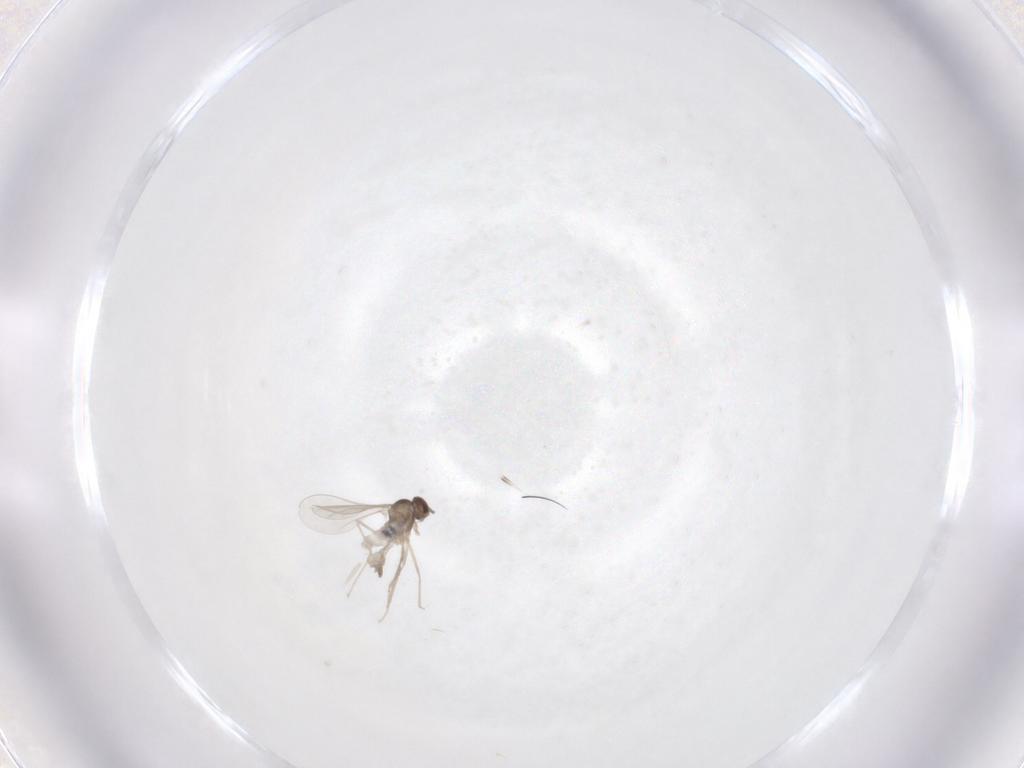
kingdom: Animalia
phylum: Arthropoda
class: Insecta
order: Diptera
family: Cecidomyiidae
